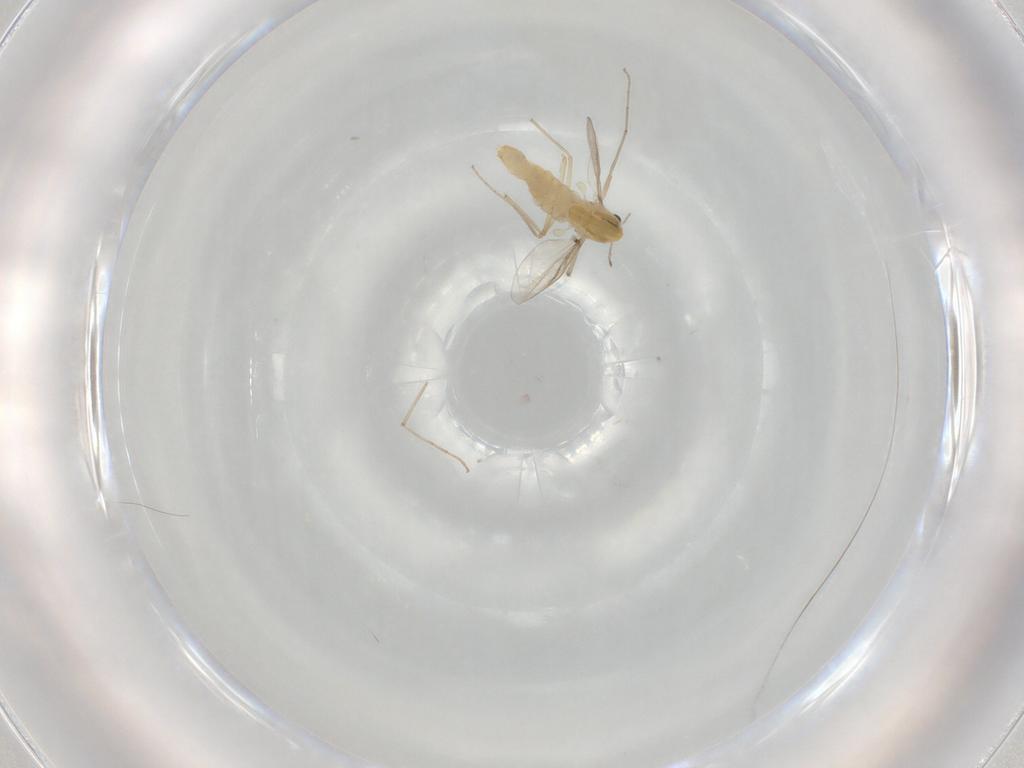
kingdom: Animalia
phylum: Arthropoda
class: Insecta
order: Diptera
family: Chironomidae
